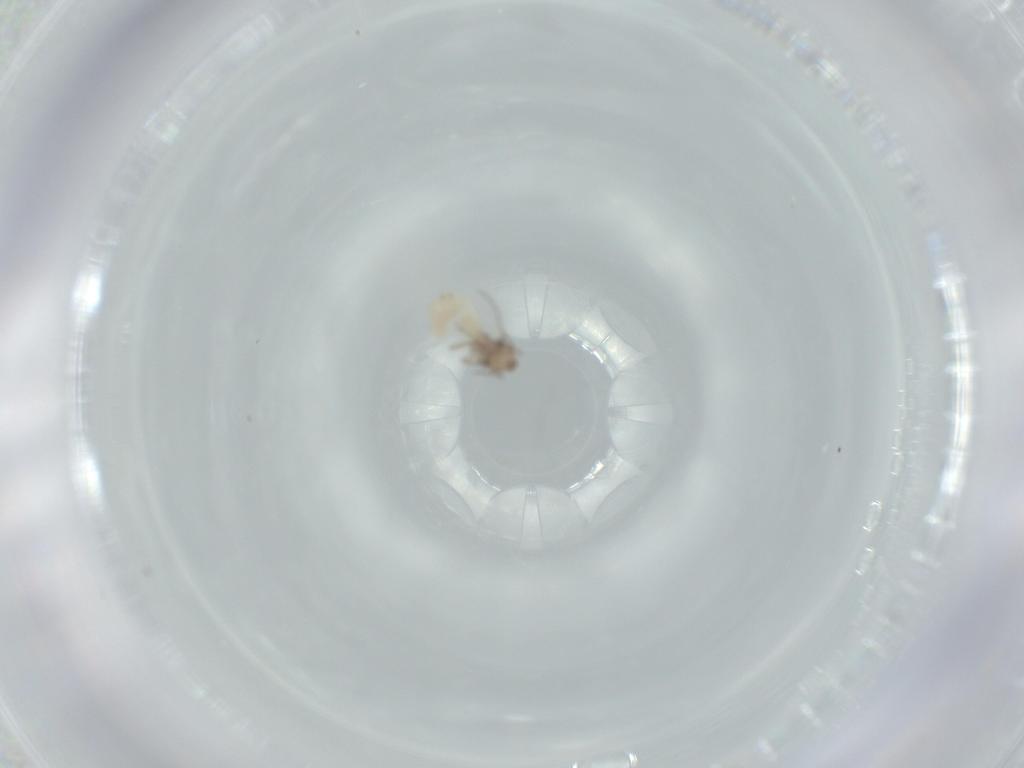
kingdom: Animalia
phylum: Arthropoda
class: Insecta
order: Psocodea
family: Lepidopsocidae
